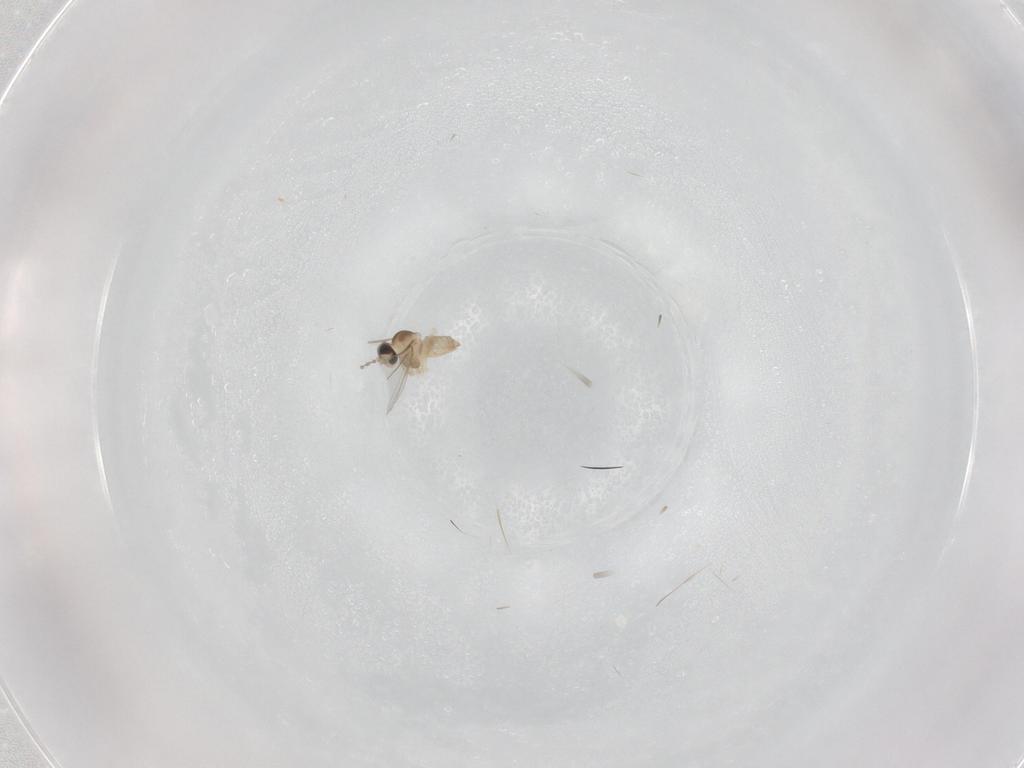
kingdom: Animalia
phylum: Arthropoda
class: Insecta
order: Diptera
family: Cecidomyiidae
